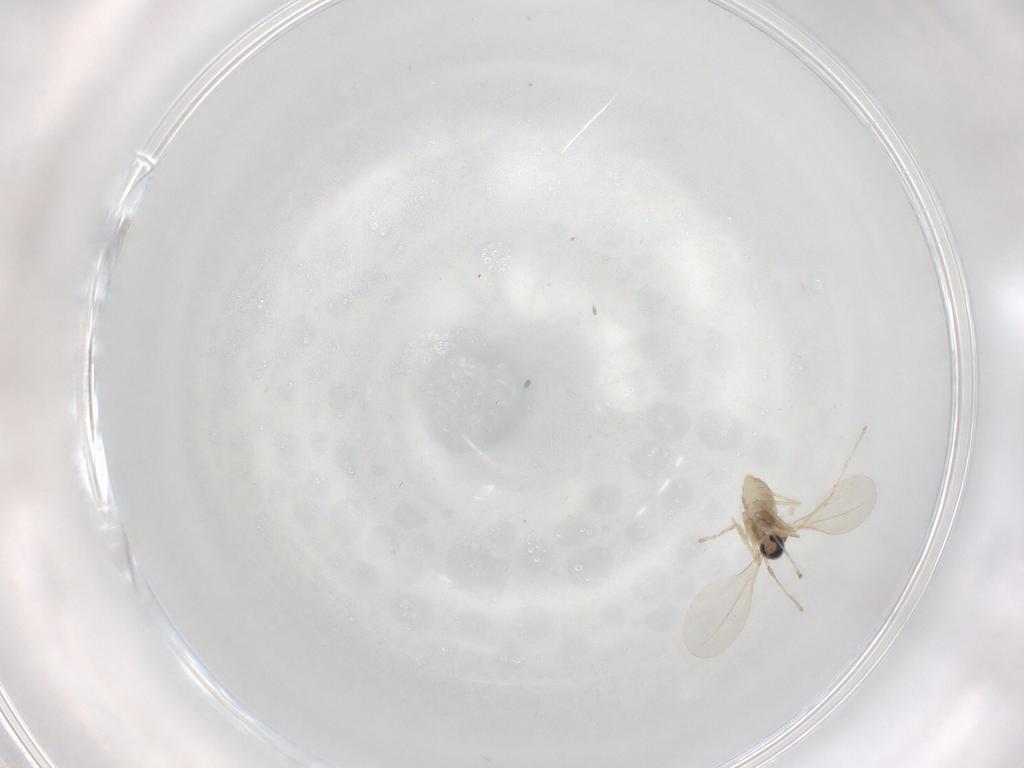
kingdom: Animalia
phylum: Arthropoda
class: Insecta
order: Diptera
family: Cecidomyiidae
